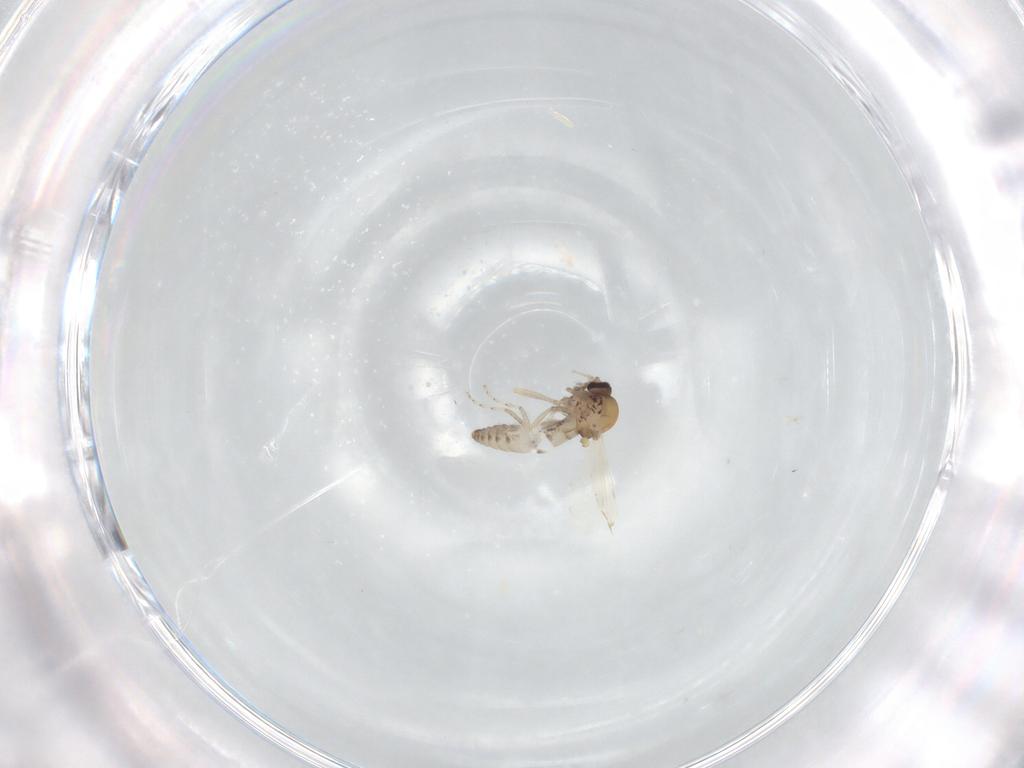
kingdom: Animalia
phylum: Arthropoda
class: Insecta
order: Diptera
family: Ceratopogonidae
